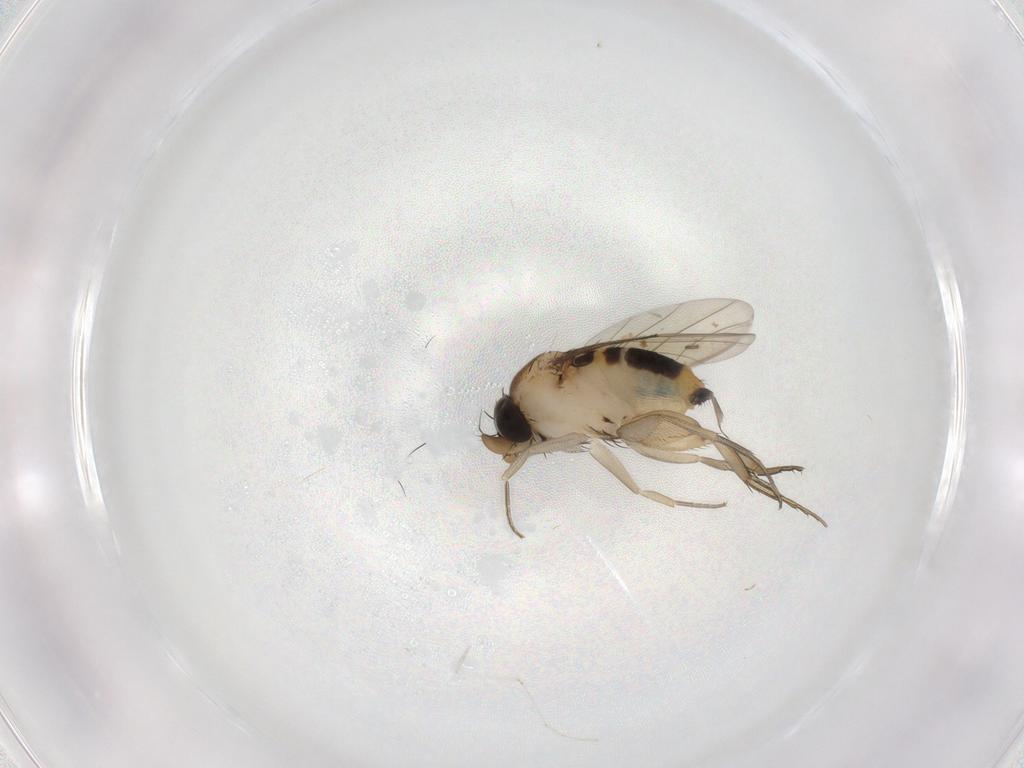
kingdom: Animalia
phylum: Arthropoda
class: Insecta
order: Diptera
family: Phoridae
